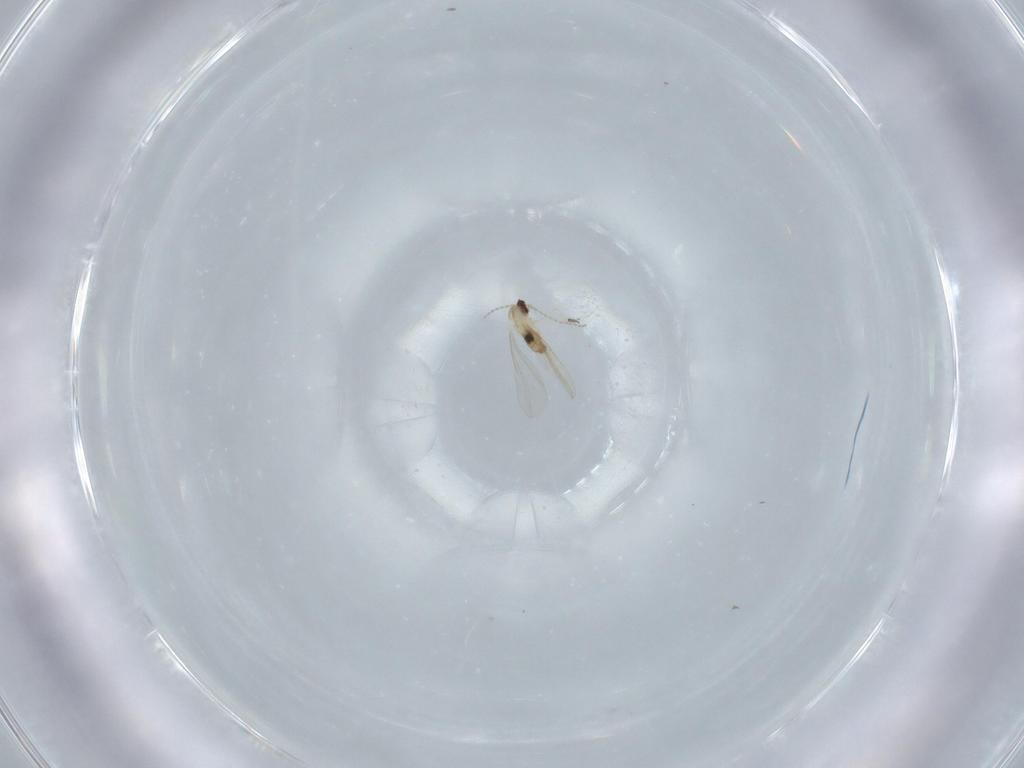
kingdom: Animalia
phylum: Arthropoda
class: Insecta
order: Diptera
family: Cecidomyiidae
